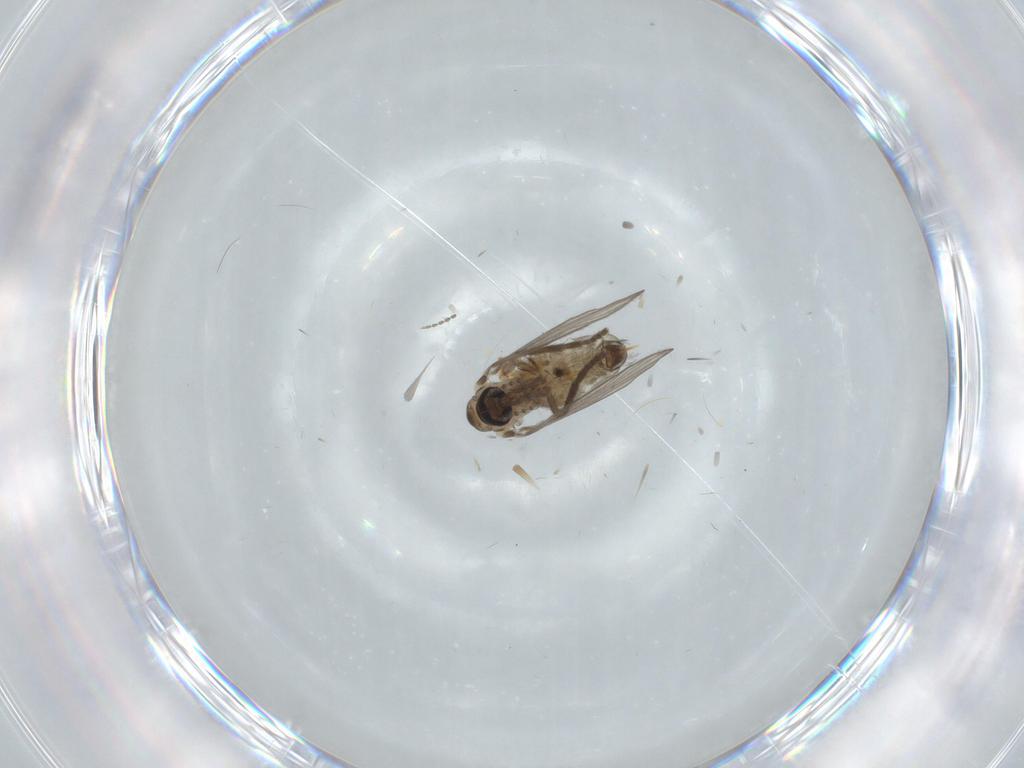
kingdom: Animalia
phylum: Arthropoda
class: Insecta
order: Diptera
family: Psychodidae
